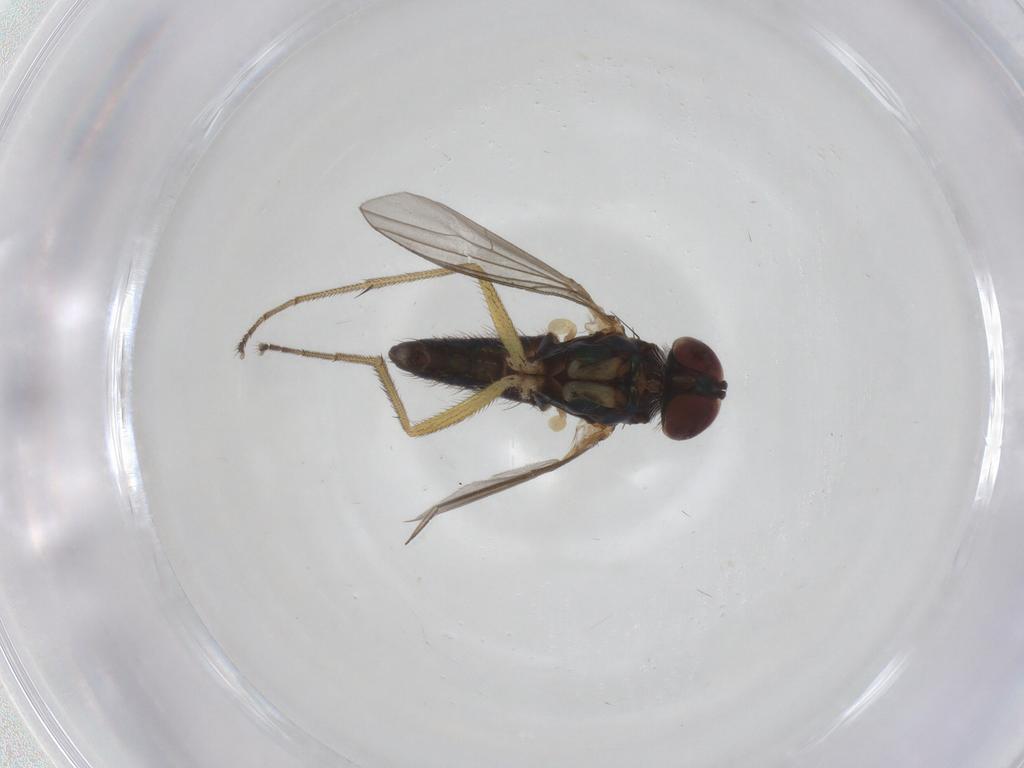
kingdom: Animalia
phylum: Arthropoda
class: Insecta
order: Diptera
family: Dolichopodidae
